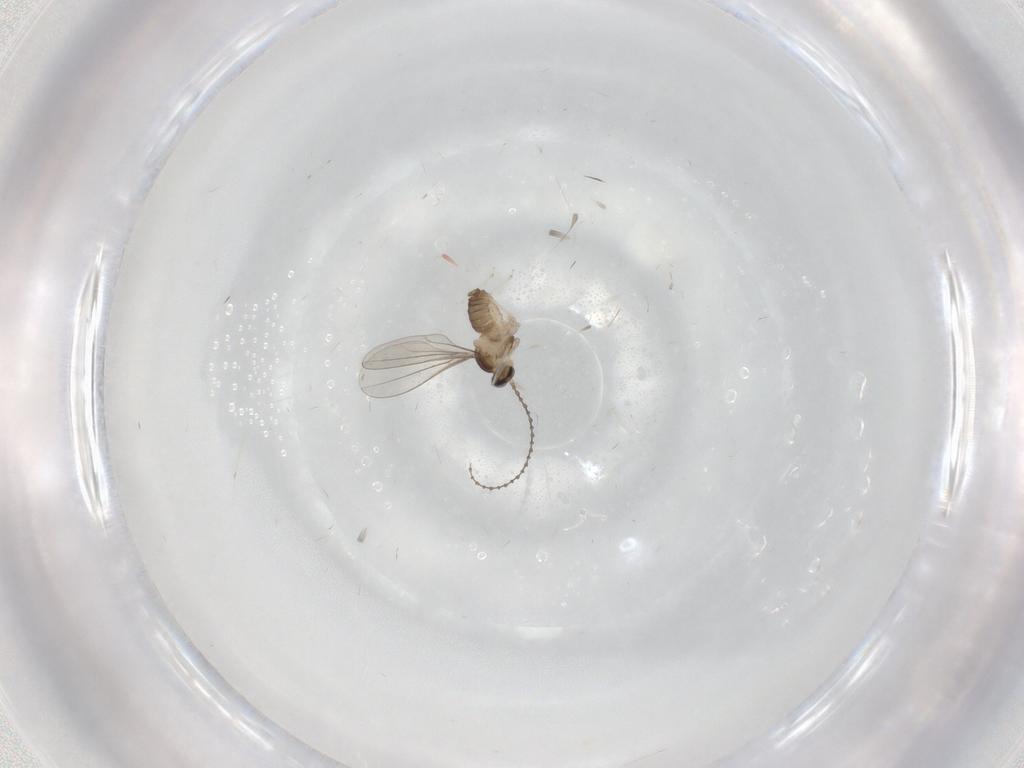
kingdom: Animalia
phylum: Arthropoda
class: Insecta
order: Diptera
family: Cecidomyiidae
